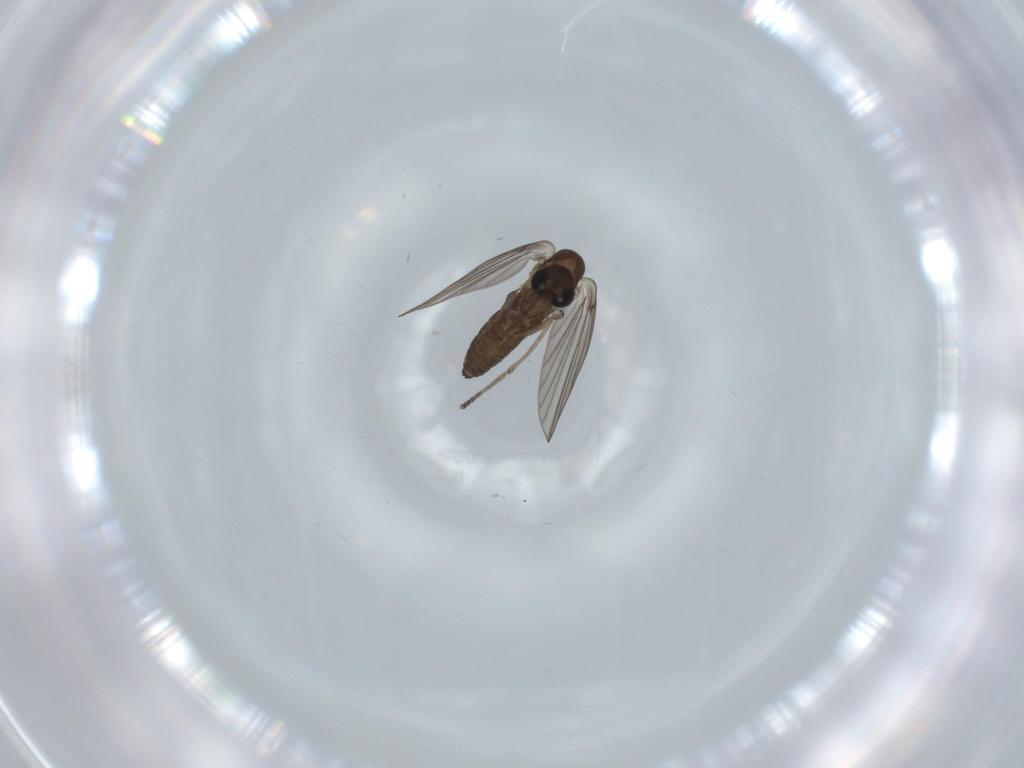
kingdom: Animalia
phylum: Arthropoda
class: Insecta
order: Diptera
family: Psychodidae
